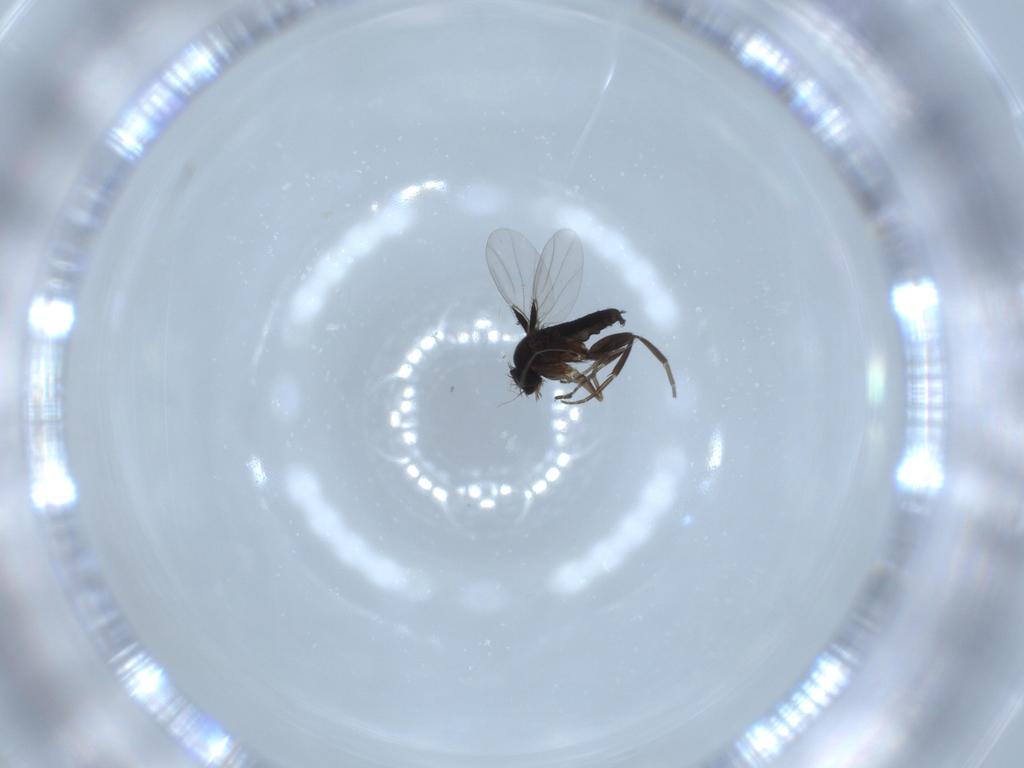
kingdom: Animalia
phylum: Arthropoda
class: Insecta
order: Diptera
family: Phoridae
